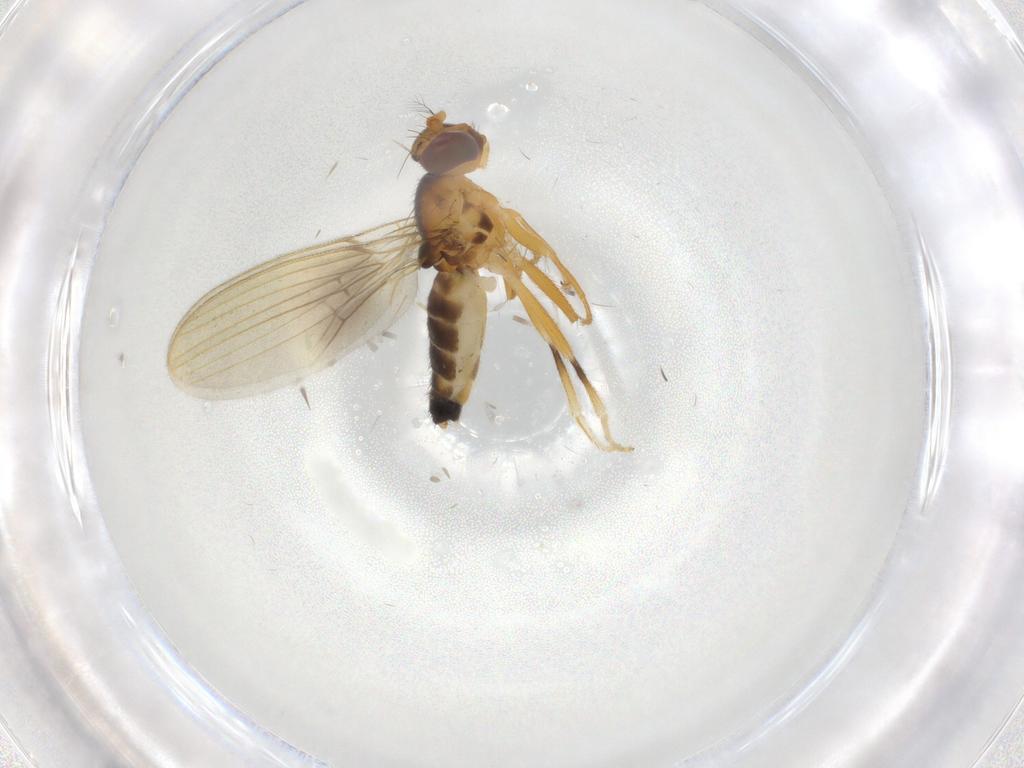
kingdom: Animalia
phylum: Arthropoda
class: Insecta
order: Diptera
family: Periscelididae
